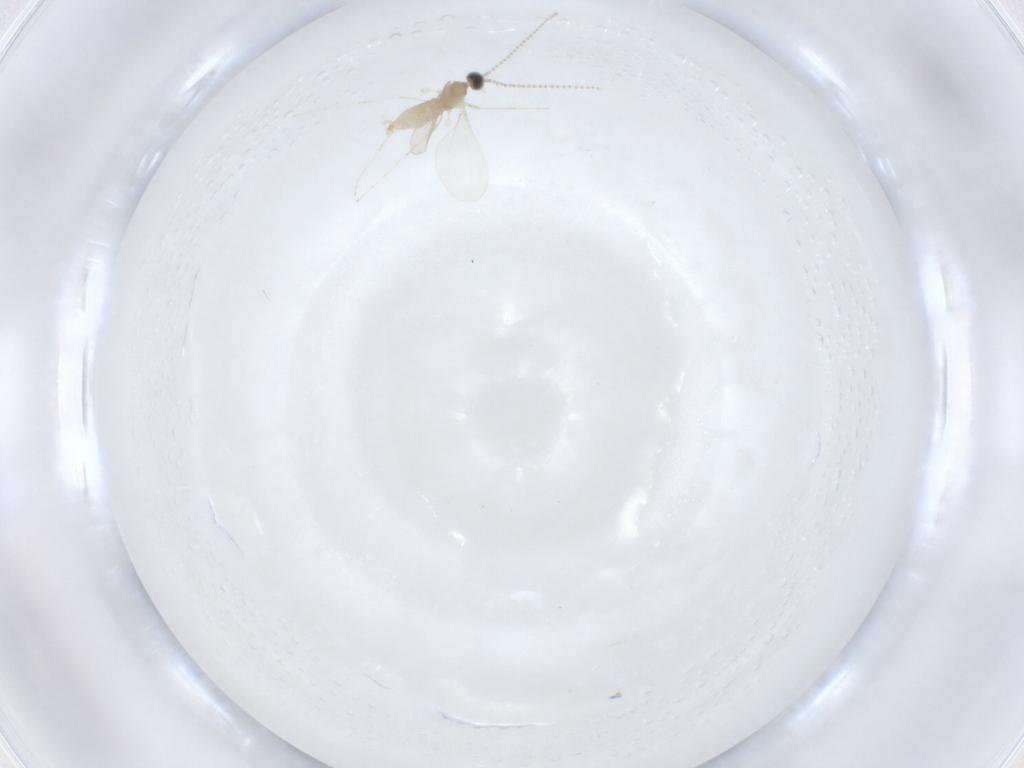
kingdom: Animalia
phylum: Arthropoda
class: Insecta
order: Diptera
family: Cecidomyiidae
